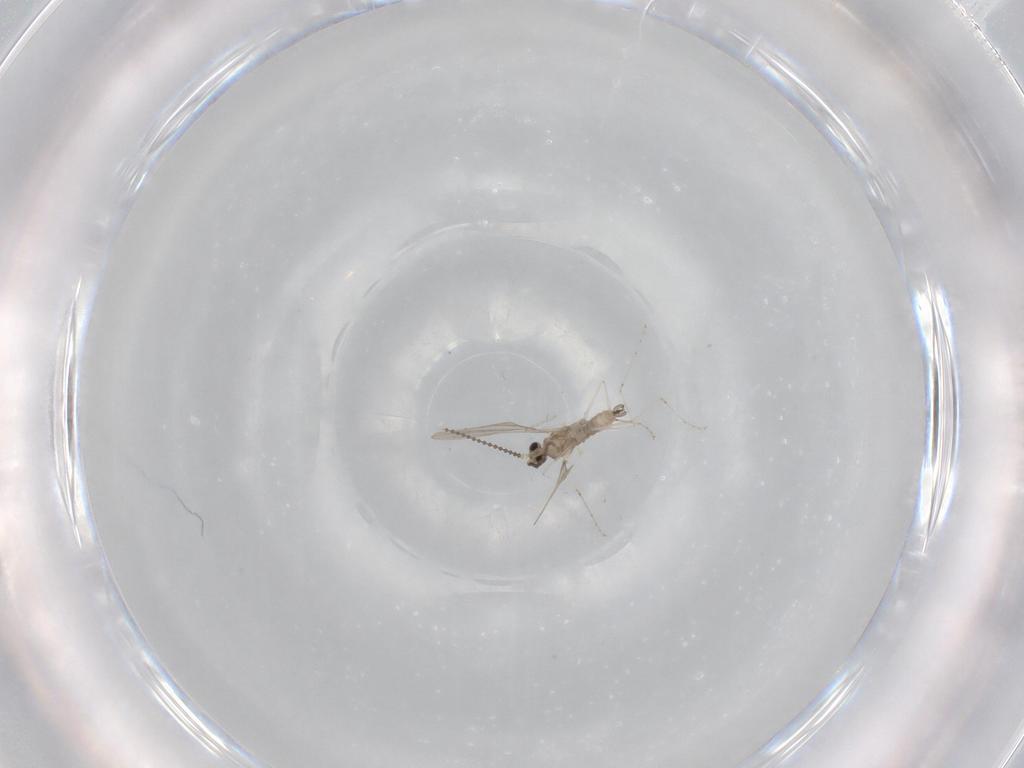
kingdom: Animalia
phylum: Arthropoda
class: Insecta
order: Diptera
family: Cecidomyiidae
